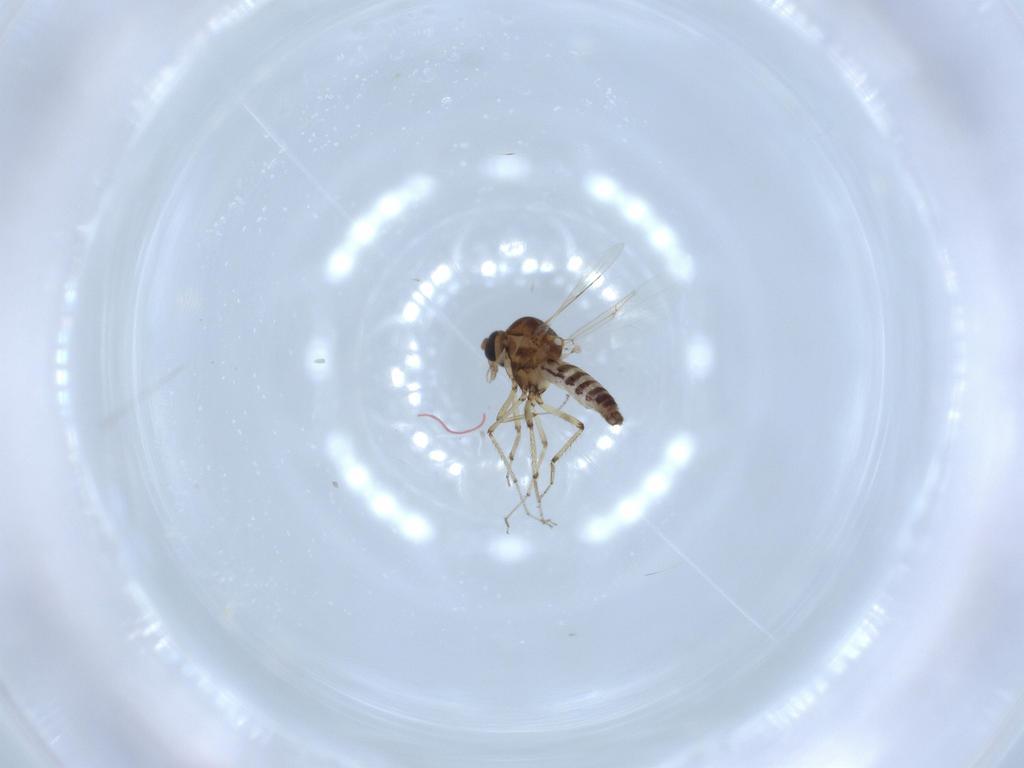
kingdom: Animalia
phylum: Arthropoda
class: Insecta
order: Diptera
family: Ceratopogonidae
